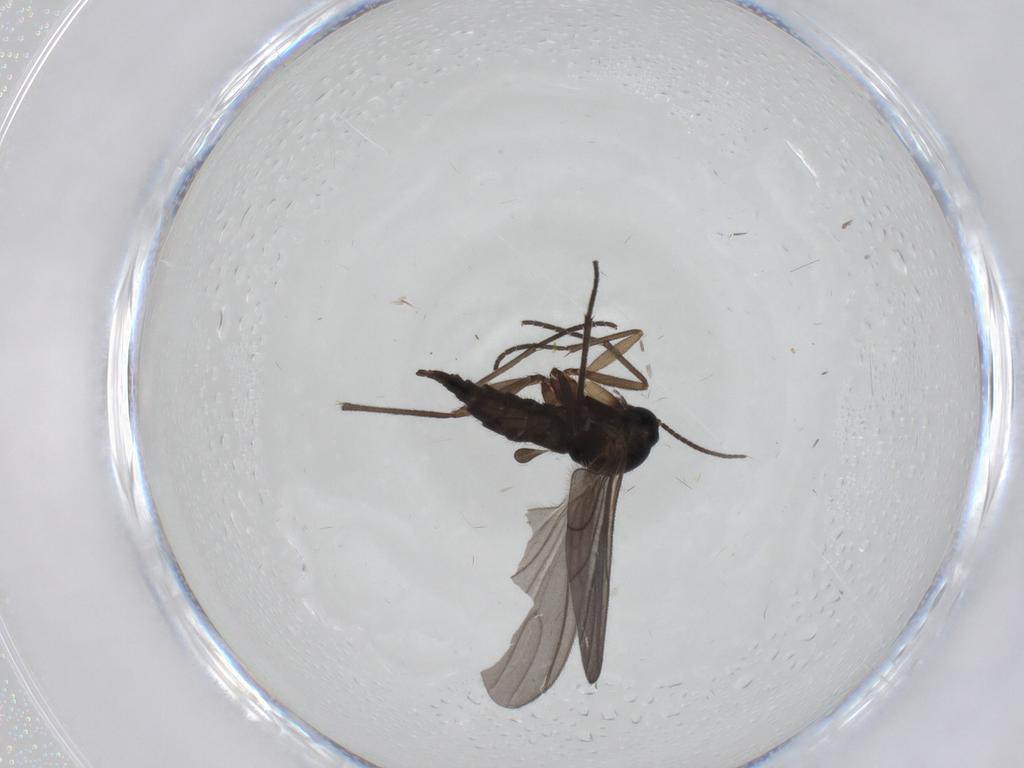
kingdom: Animalia
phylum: Arthropoda
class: Insecta
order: Diptera
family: Sciaridae
